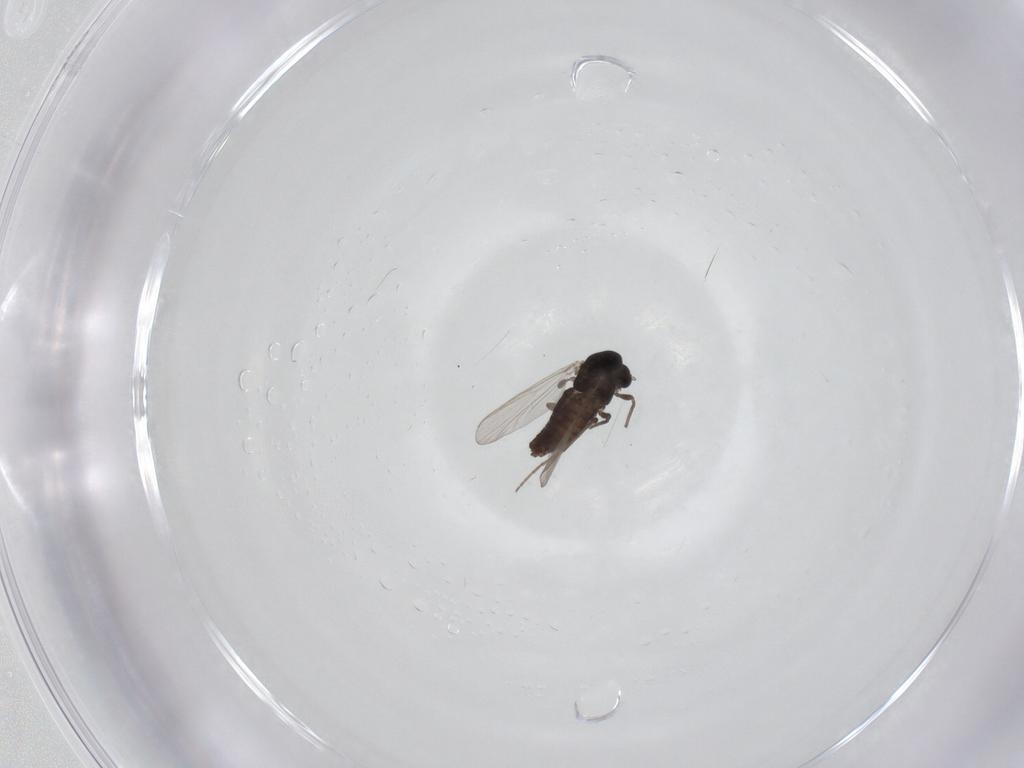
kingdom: Animalia
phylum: Arthropoda
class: Insecta
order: Diptera
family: Chironomidae
